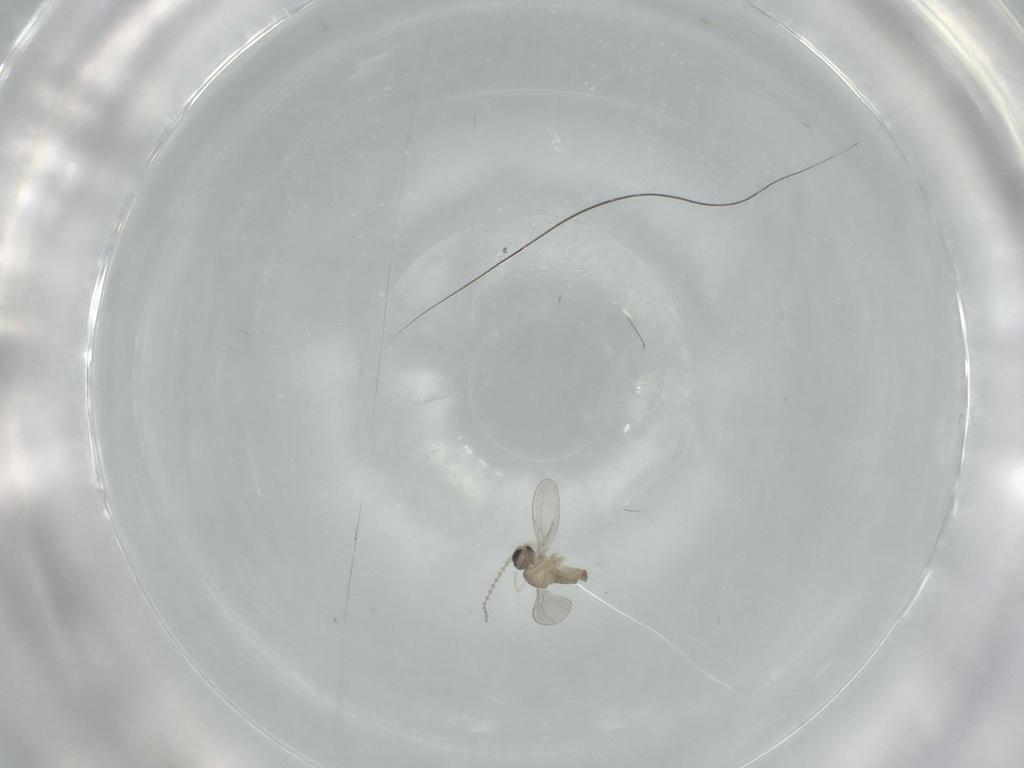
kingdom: Animalia
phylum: Arthropoda
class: Insecta
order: Diptera
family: Cecidomyiidae
